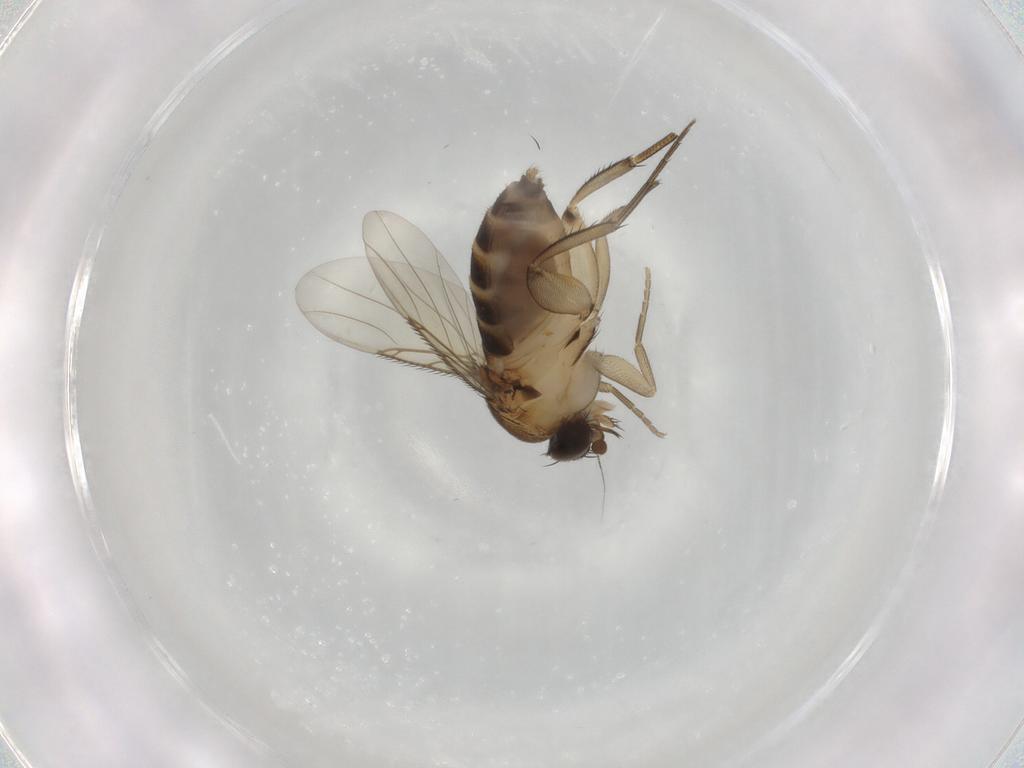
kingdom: Animalia
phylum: Arthropoda
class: Insecta
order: Diptera
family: Phoridae
